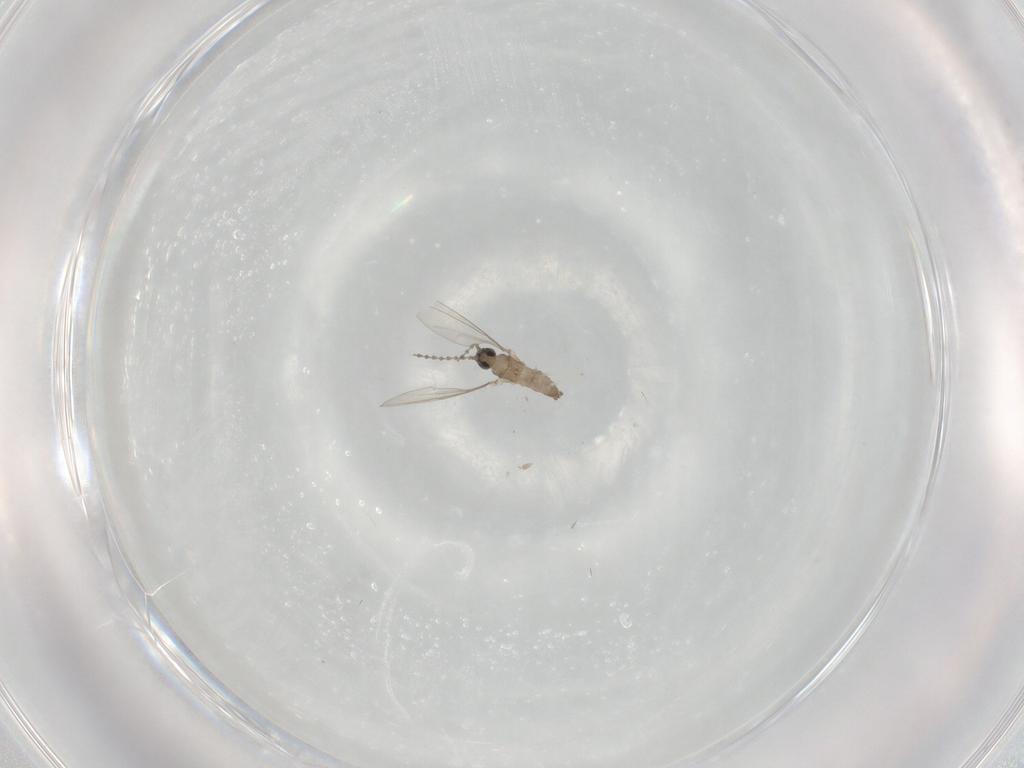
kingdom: Animalia
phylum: Arthropoda
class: Insecta
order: Diptera
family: Cecidomyiidae
